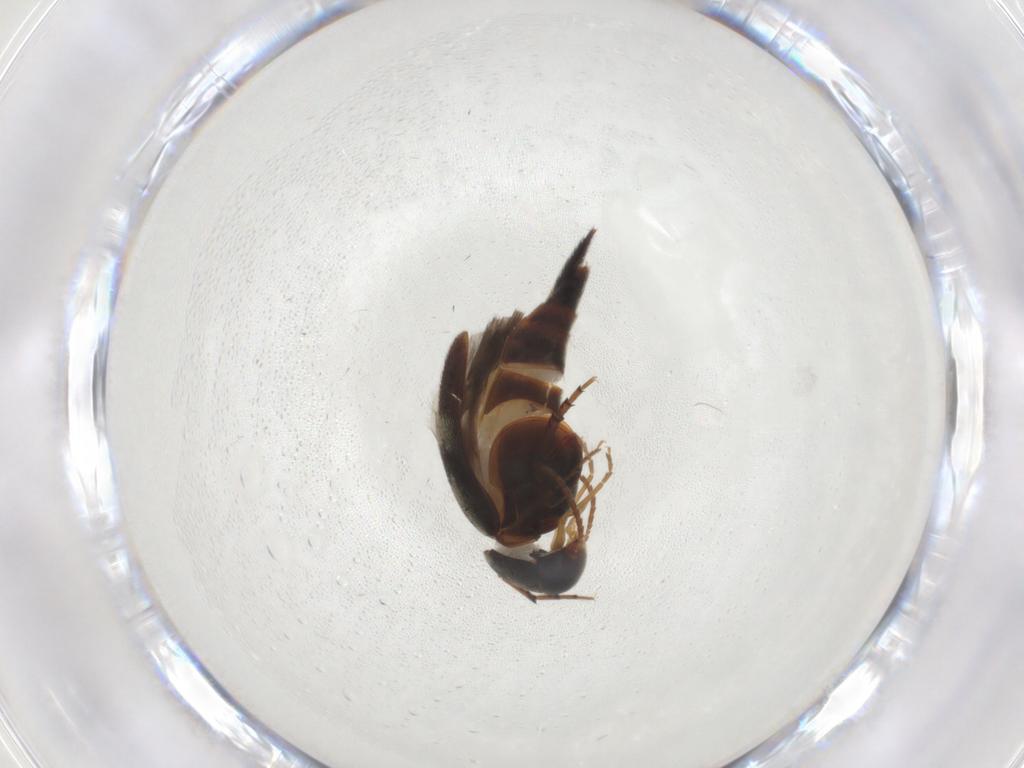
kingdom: Animalia
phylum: Arthropoda
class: Insecta
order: Coleoptera
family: Mordellidae
